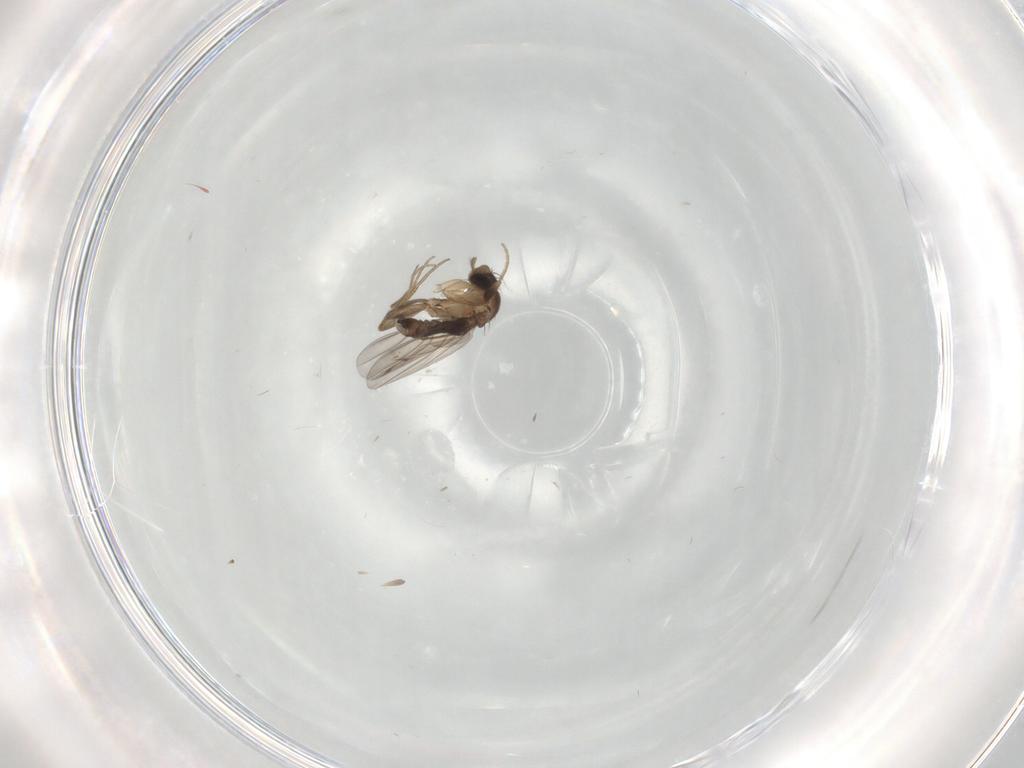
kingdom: Animalia
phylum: Arthropoda
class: Insecta
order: Diptera
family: Phoridae
